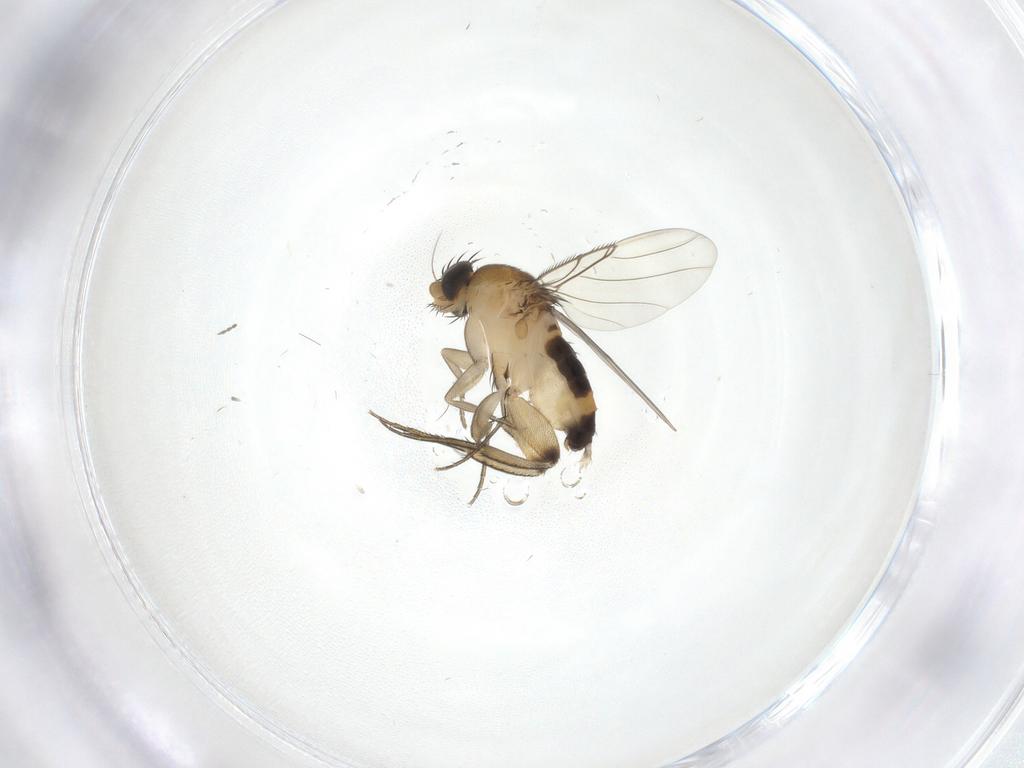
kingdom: Animalia
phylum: Arthropoda
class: Insecta
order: Diptera
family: Phoridae
